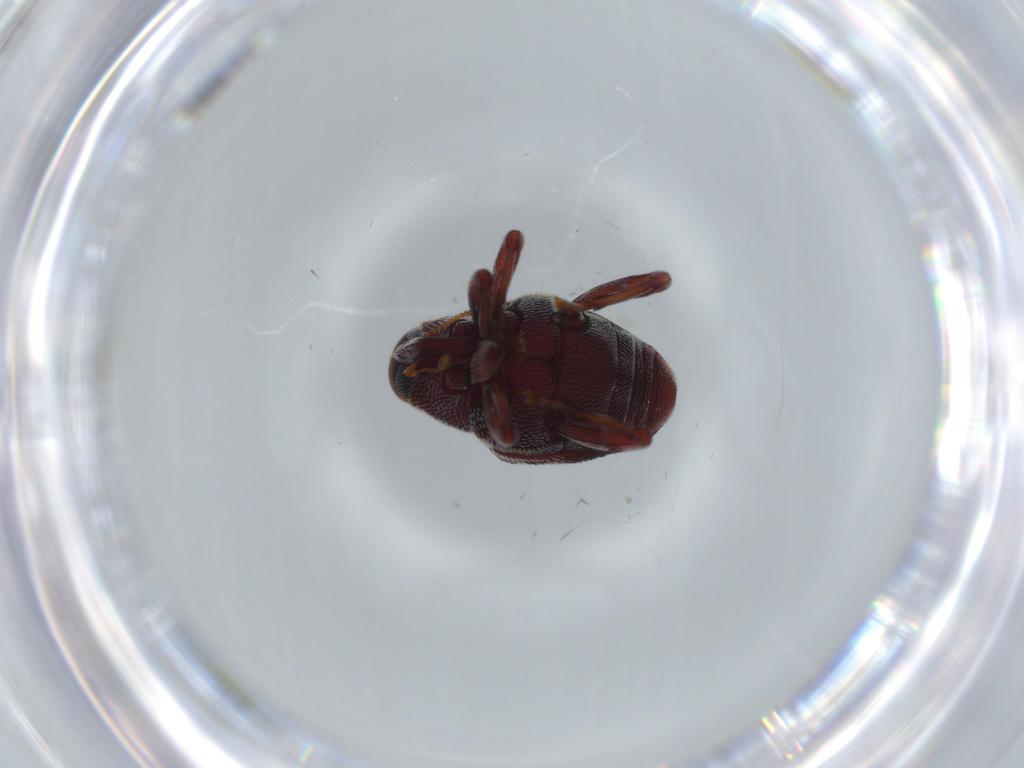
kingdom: Animalia
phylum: Arthropoda
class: Insecta
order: Coleoptera
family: Curculionidae
